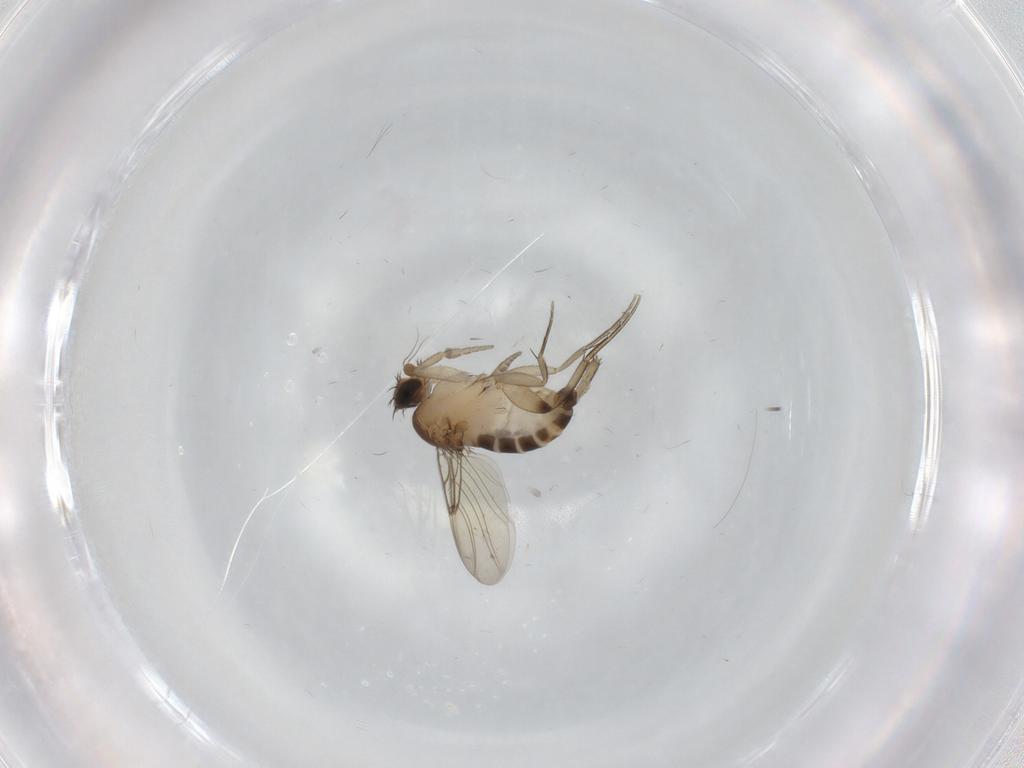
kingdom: Animalia
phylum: Arthropoda
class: Insecta
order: Diptera
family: Phoridae
